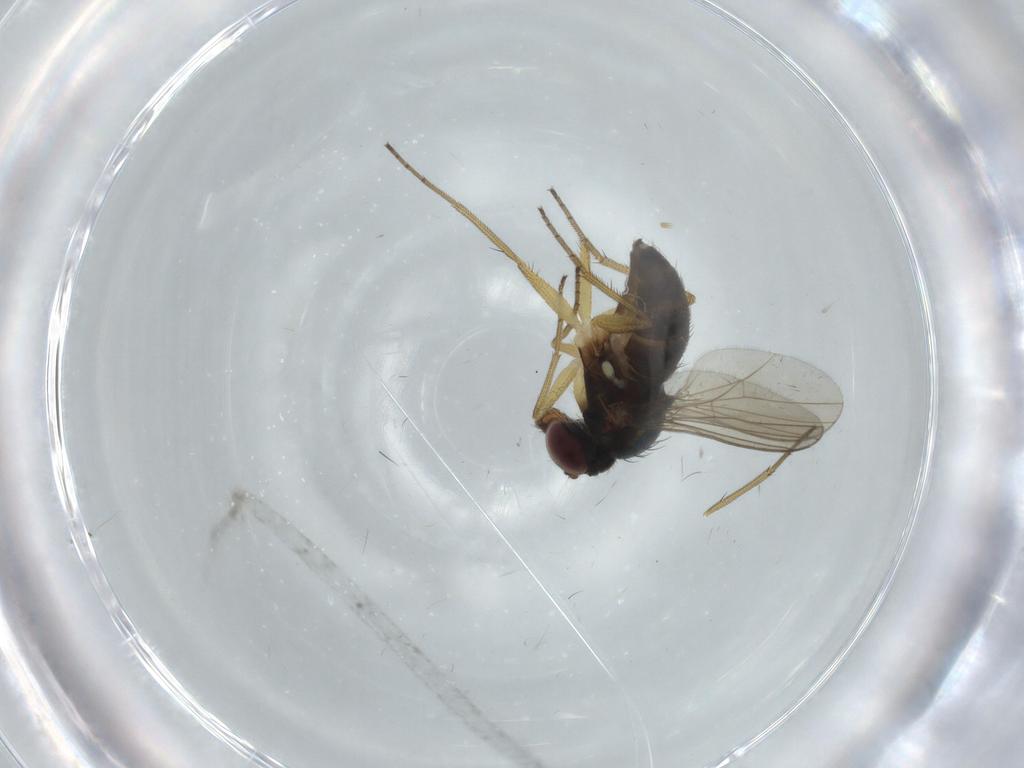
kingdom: Animalia
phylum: Arthropoda
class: Insecta
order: Diptera
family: Dolichopodidae
